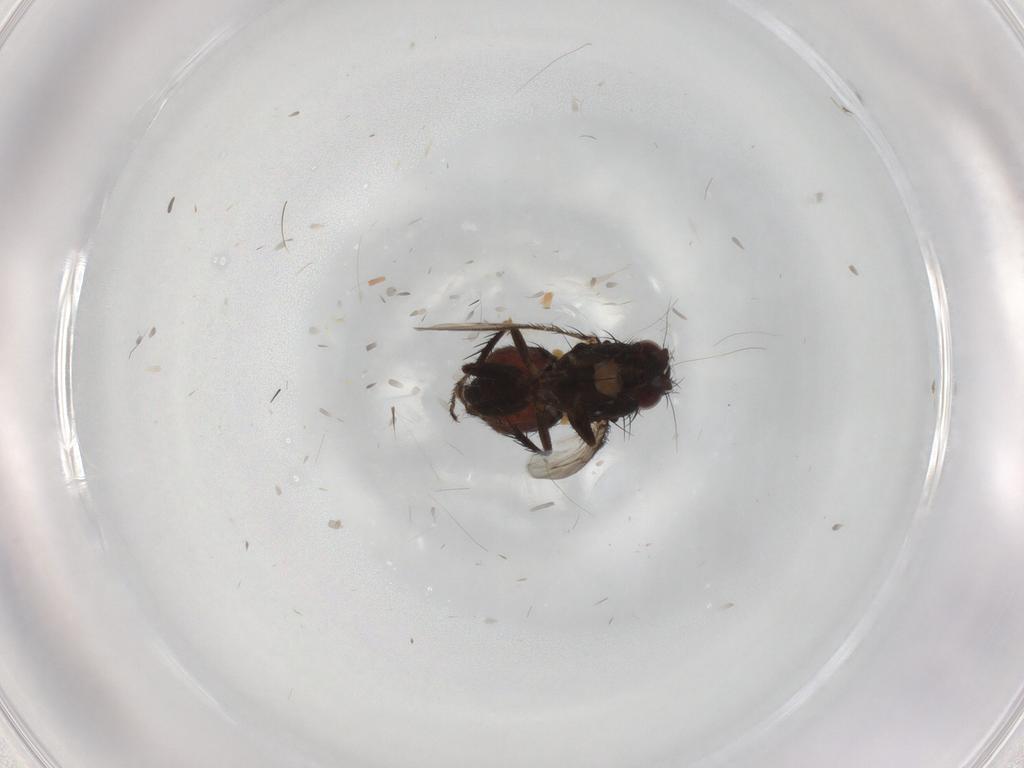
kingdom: Animalia
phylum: Arthropoda
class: Insecta
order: Diptera
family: Sphaeroceridae
